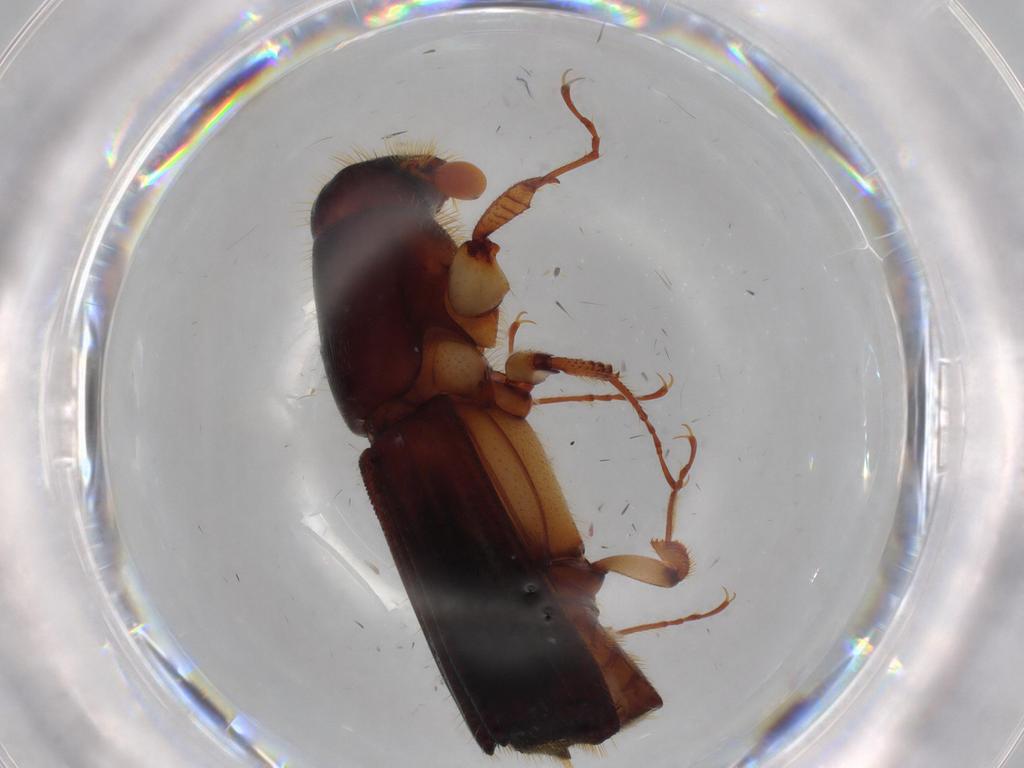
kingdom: Animalia
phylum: Arthropoda
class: Insecta
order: Coleoptera
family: Curculionidae
